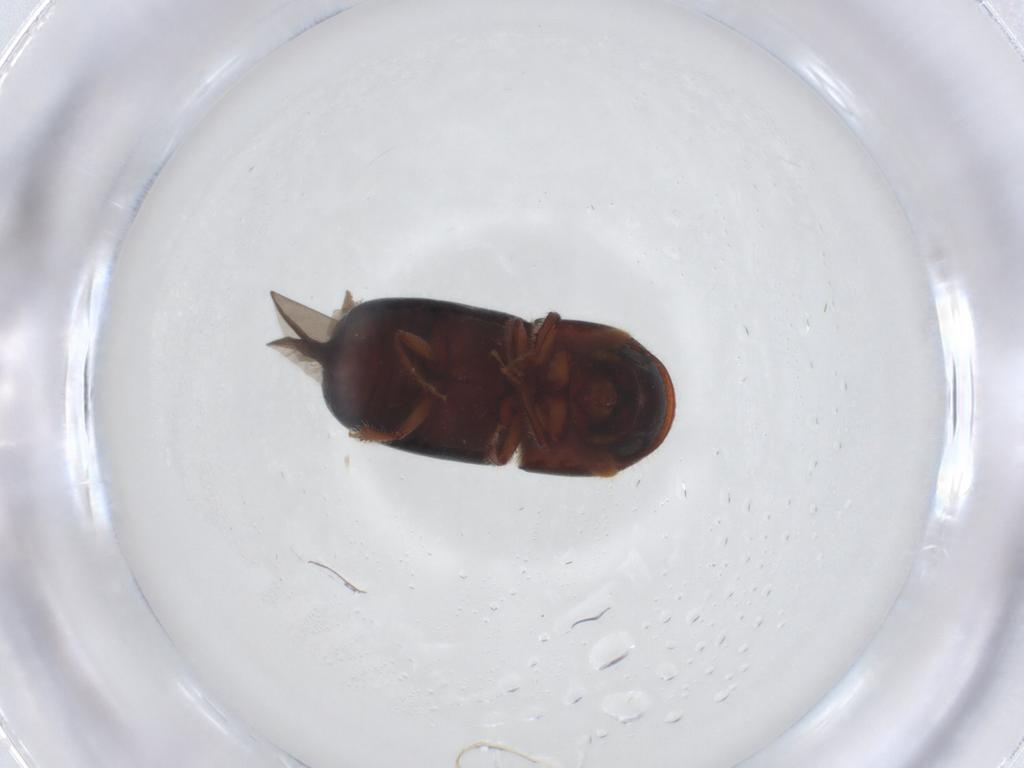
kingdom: Animalia
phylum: Arthropoda
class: Insecta
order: Coleoptera
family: Curculionidae
